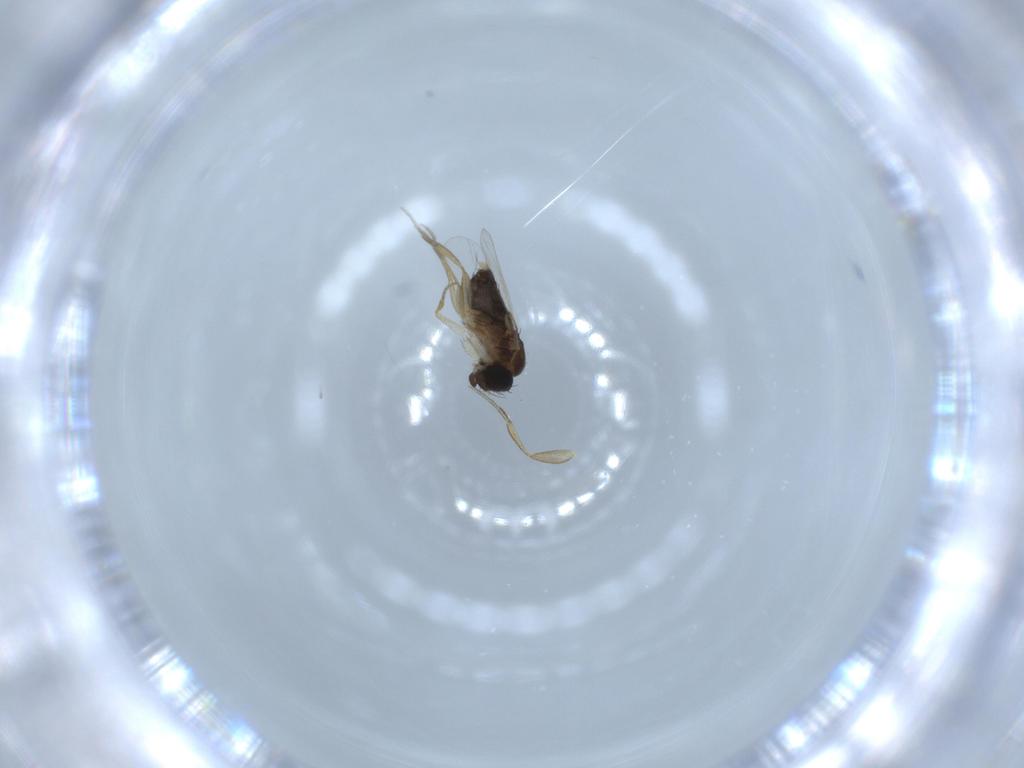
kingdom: Animalia
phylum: Arthropoda
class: Insecta
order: Diptera
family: Phoridae
